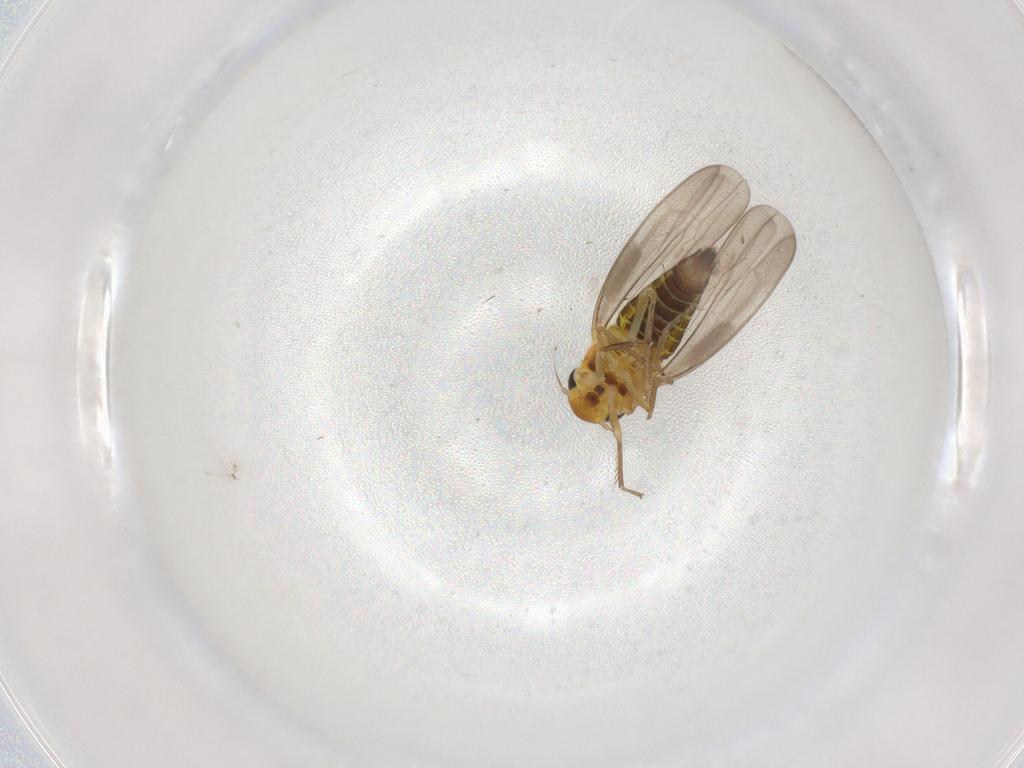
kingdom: Animalia
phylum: Arthropoda
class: Insecta
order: Hemiptera
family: Cicadellidae
